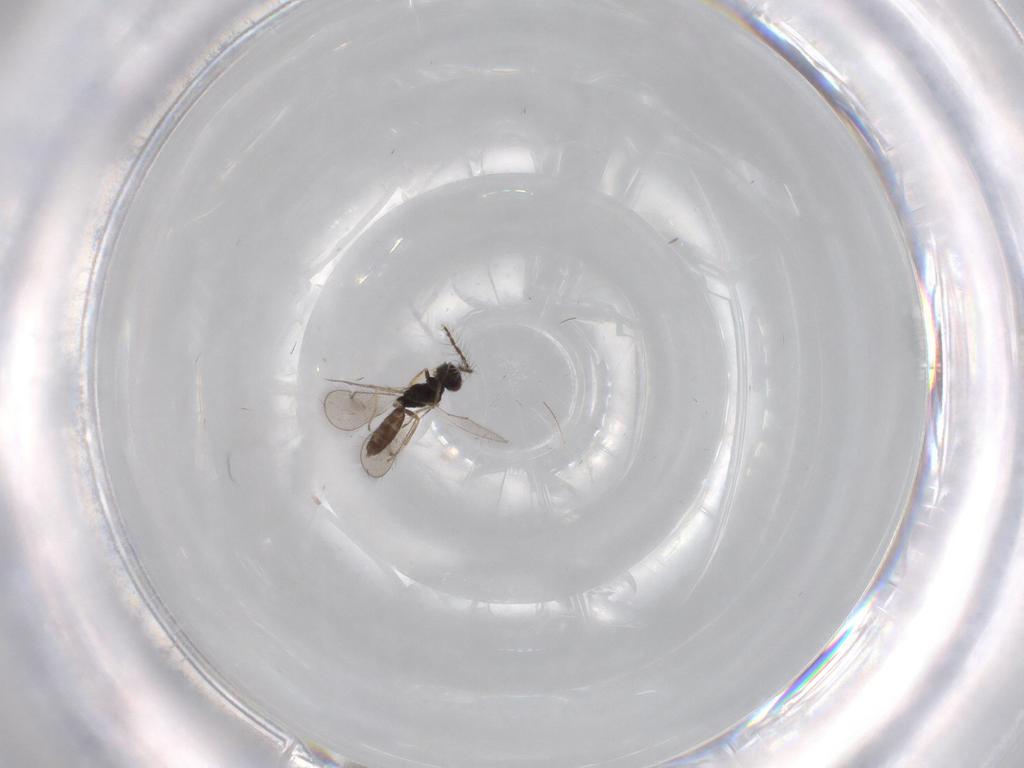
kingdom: Animalia
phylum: Arthropoda
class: Insecta
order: Hymenoptera
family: Eulophidae
